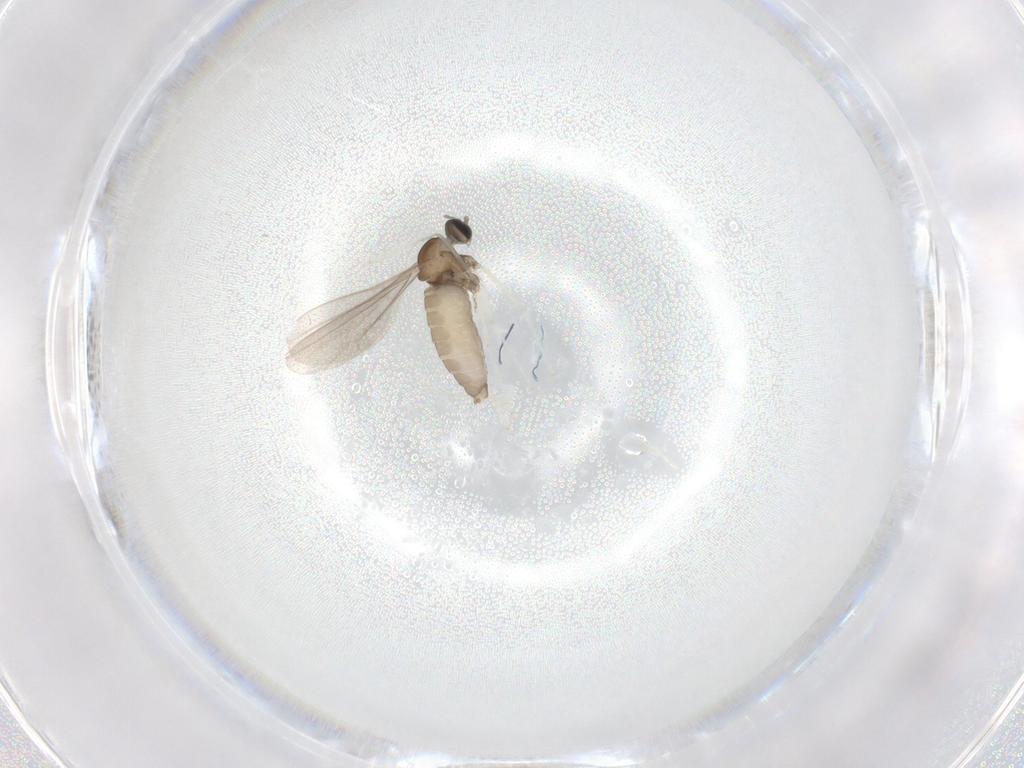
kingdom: Animalia
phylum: Arthropoda
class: Insecta
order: Diptera
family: Cecidomyiidae
